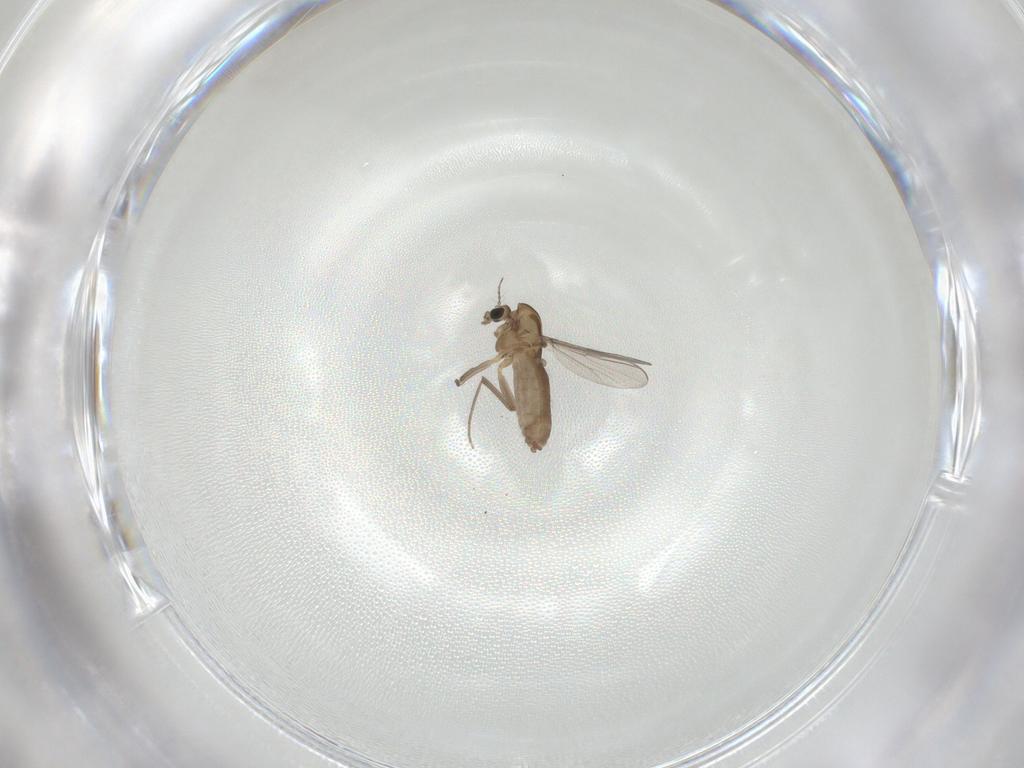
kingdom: Animalia
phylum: Arthropoda
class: Insecta
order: Diptera
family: Chironomidae
